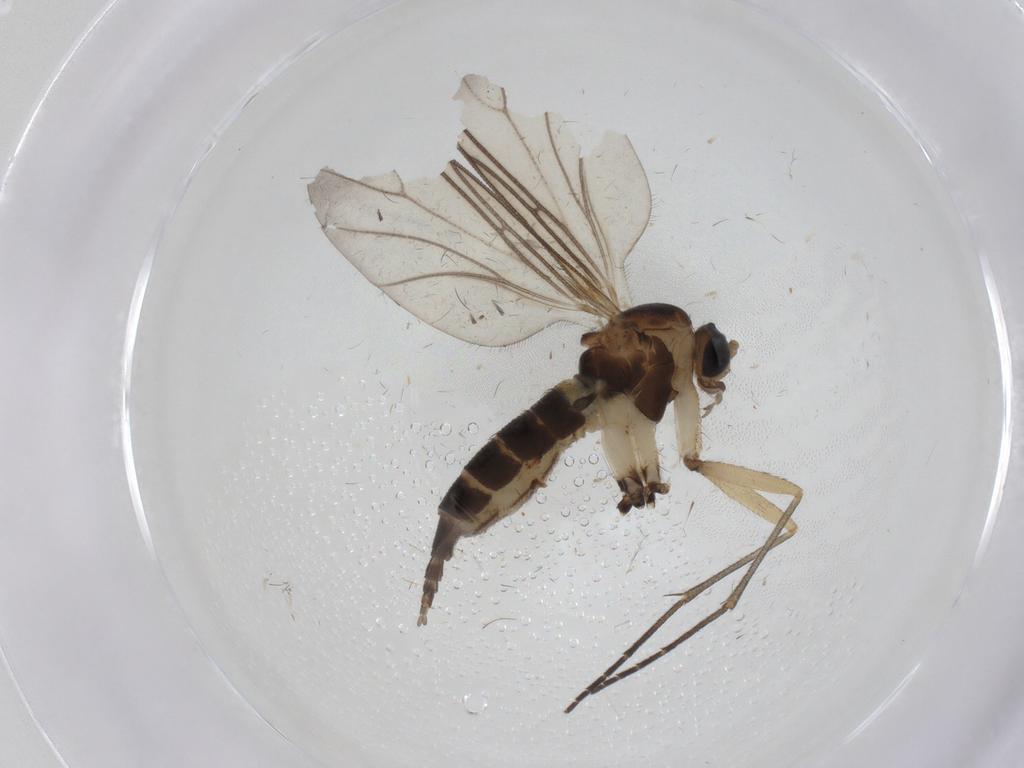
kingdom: Animalia
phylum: Arthropoda
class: Insecta
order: Diptera
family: Sciaridae
